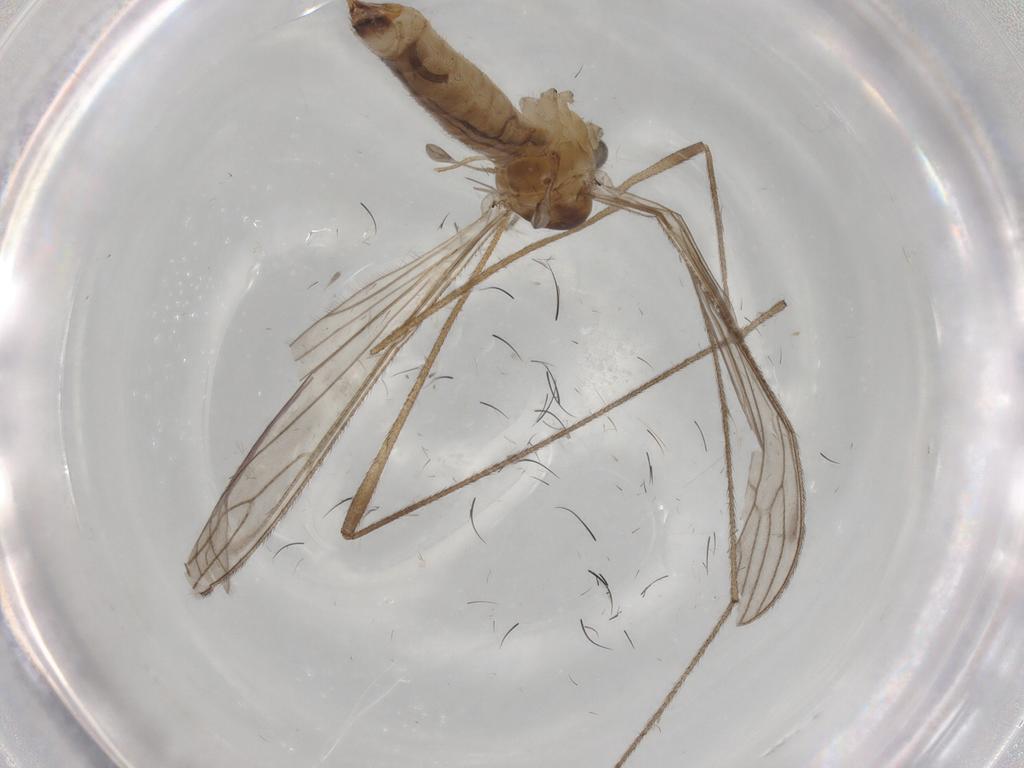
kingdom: Animalia
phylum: Arthropoda
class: Insecta
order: Diptera
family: Limoniidae
